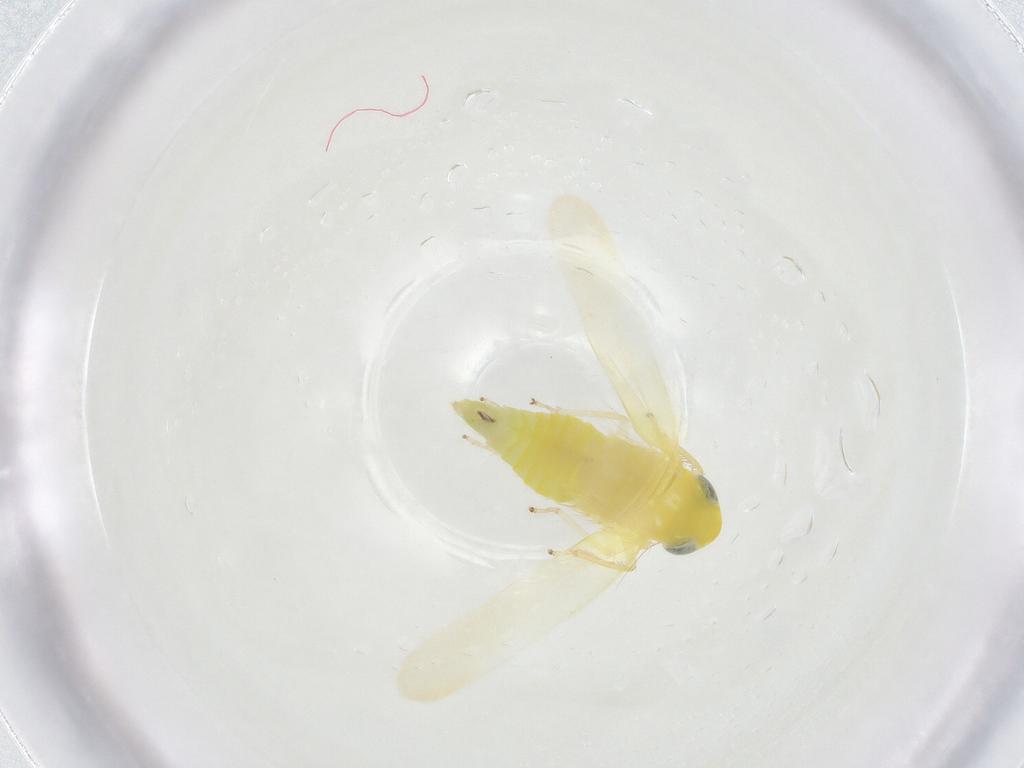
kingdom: Animalia
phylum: Arthropoda
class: Insecta
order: Hemiptera
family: Cicadellidae
